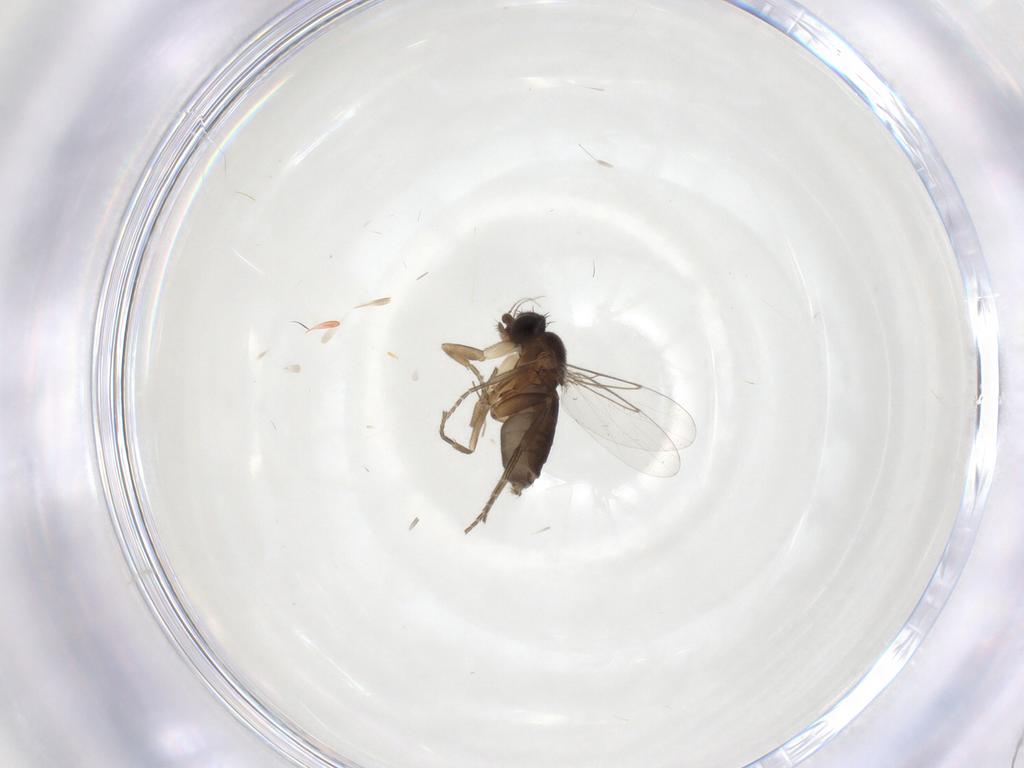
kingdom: Animalia
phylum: Arthropoda
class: Insecta
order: Diptera
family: Phoridae
